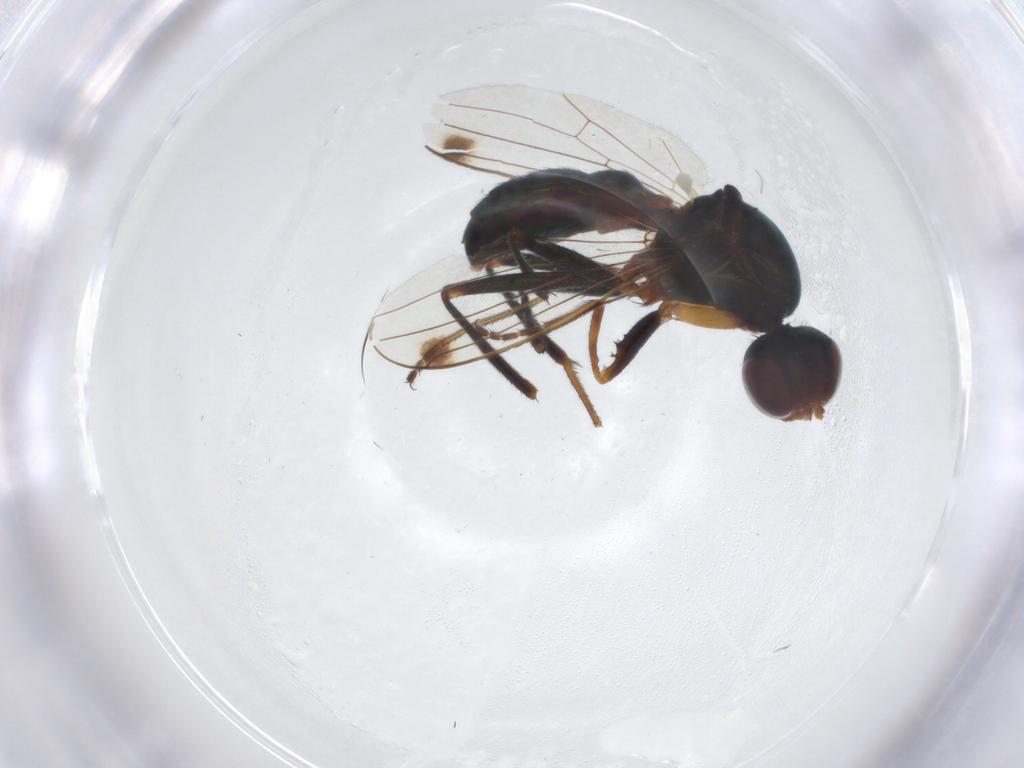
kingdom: Animalia
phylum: Arthropoda
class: Insecta
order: Diptera
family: Sepsidae
